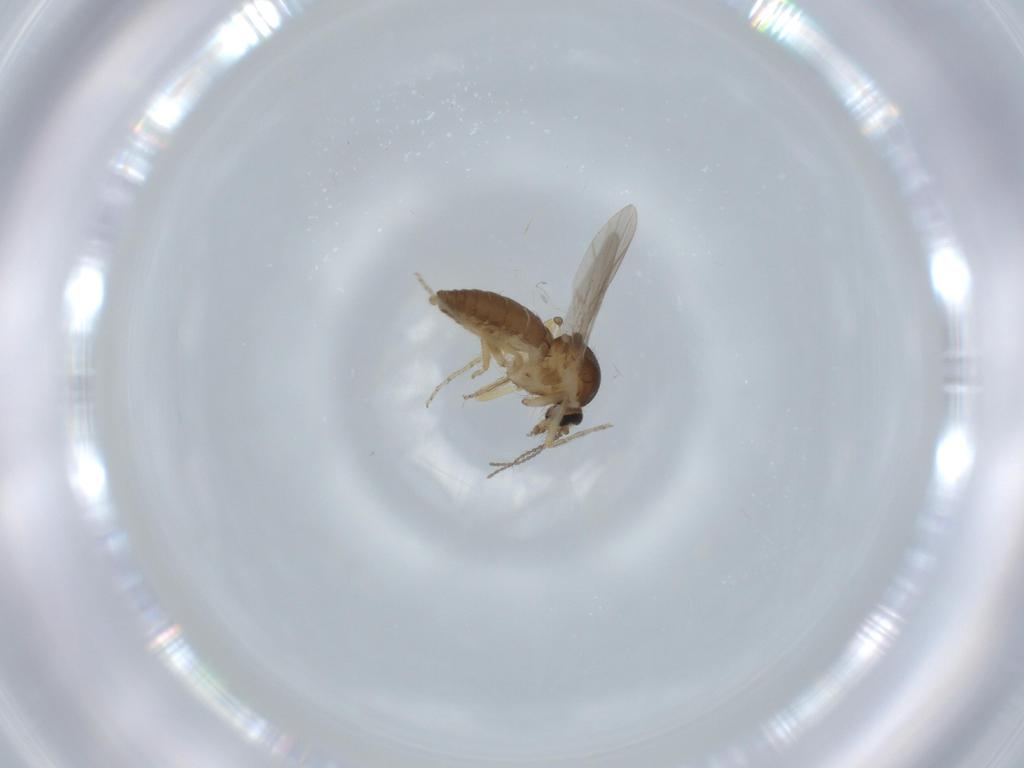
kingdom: Animalia
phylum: Arthropoda
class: Insecta
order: Diptera
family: Ceratopogonidae
